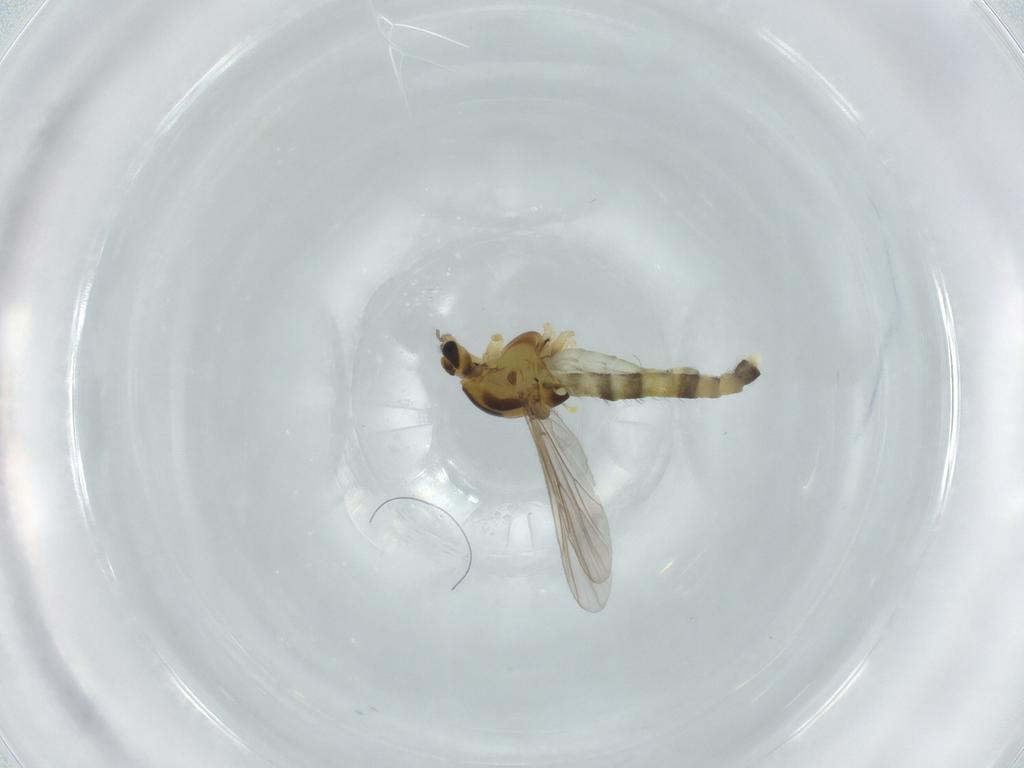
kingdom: Animalia
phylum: Arthropoda
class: Insecta
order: Diptera
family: Chironomidae
